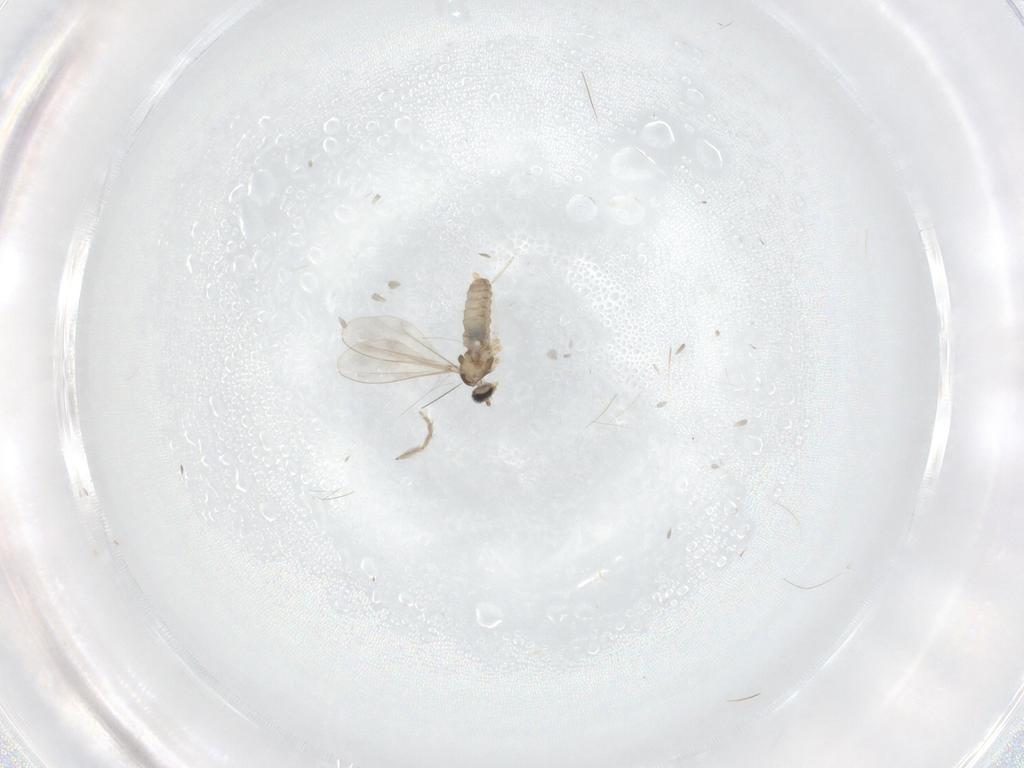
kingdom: Animalia
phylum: Arthropoda
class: Insecta
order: Diptera
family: Cecidomyiidae
